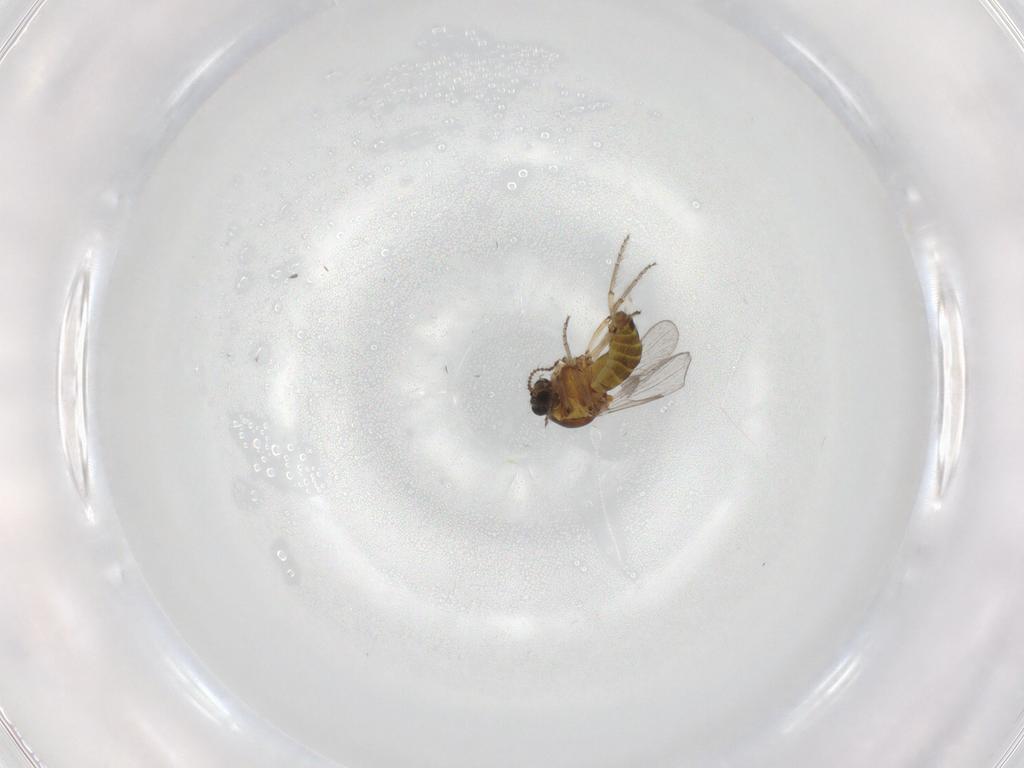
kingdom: Animalia
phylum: Arthropoda
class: Insecta
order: Diptera
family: Ceratopogonidae
